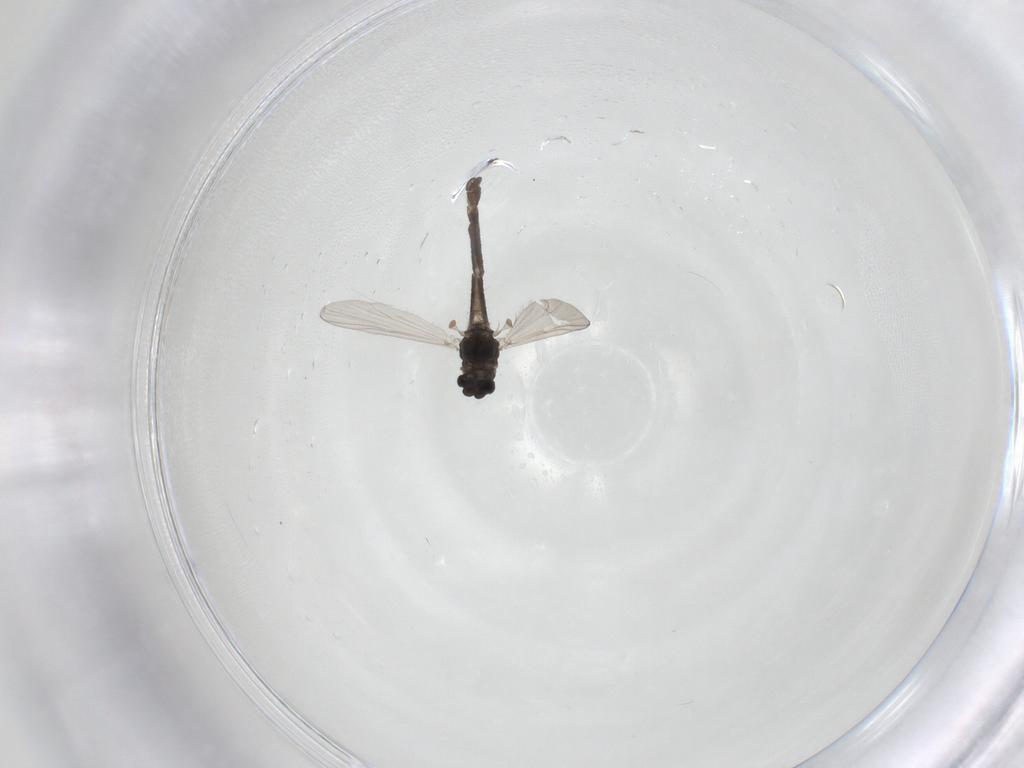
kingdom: Animalia
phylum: Arthropoda
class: Insecta
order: Diptera
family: Chironomidae
